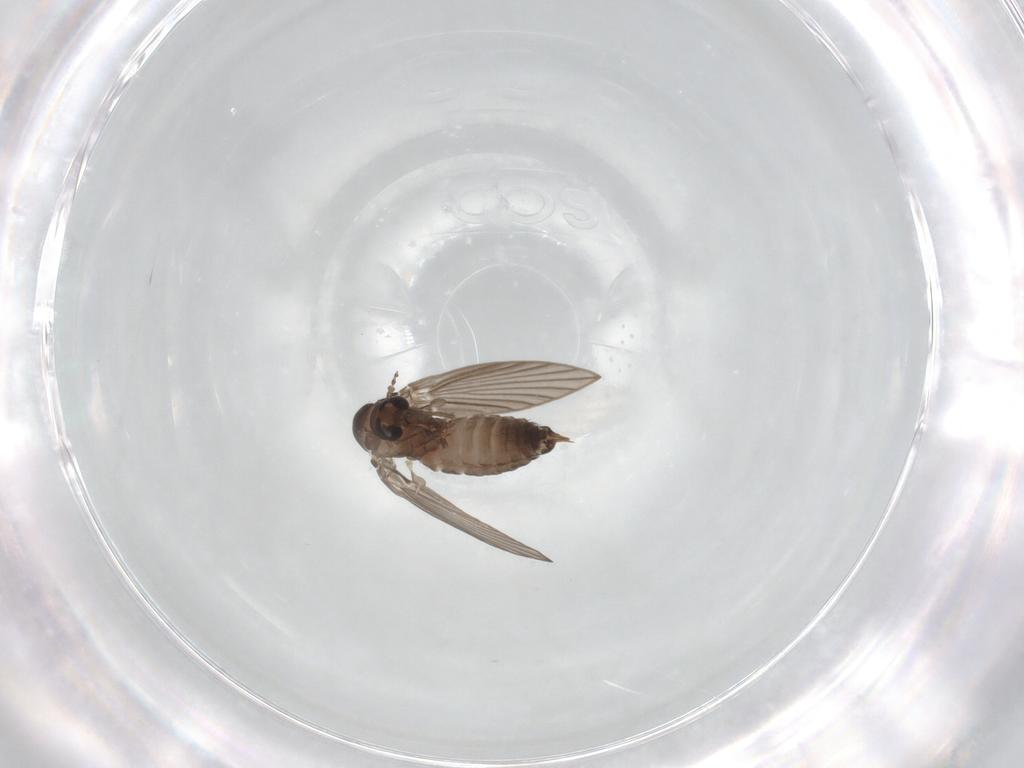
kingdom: Animalia
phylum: Arthropoda
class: Insecta
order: Diptera
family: Psychodidae
